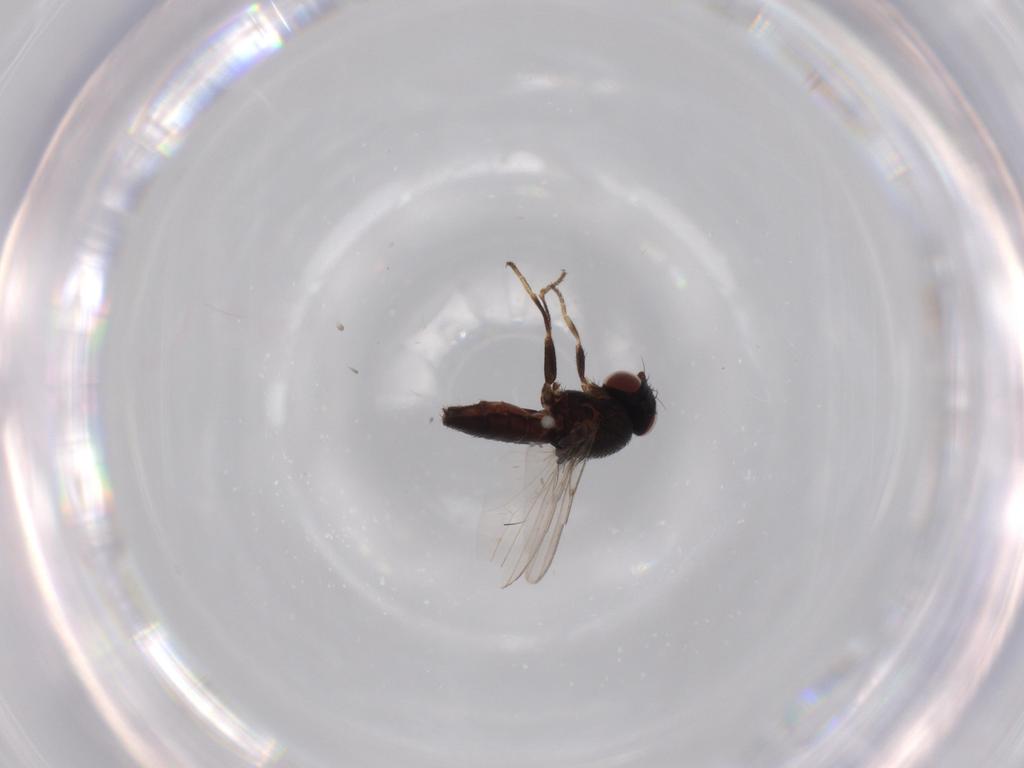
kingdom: Animalia
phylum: Arthropoda
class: Insecta
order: Diptera
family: Milichiidae
